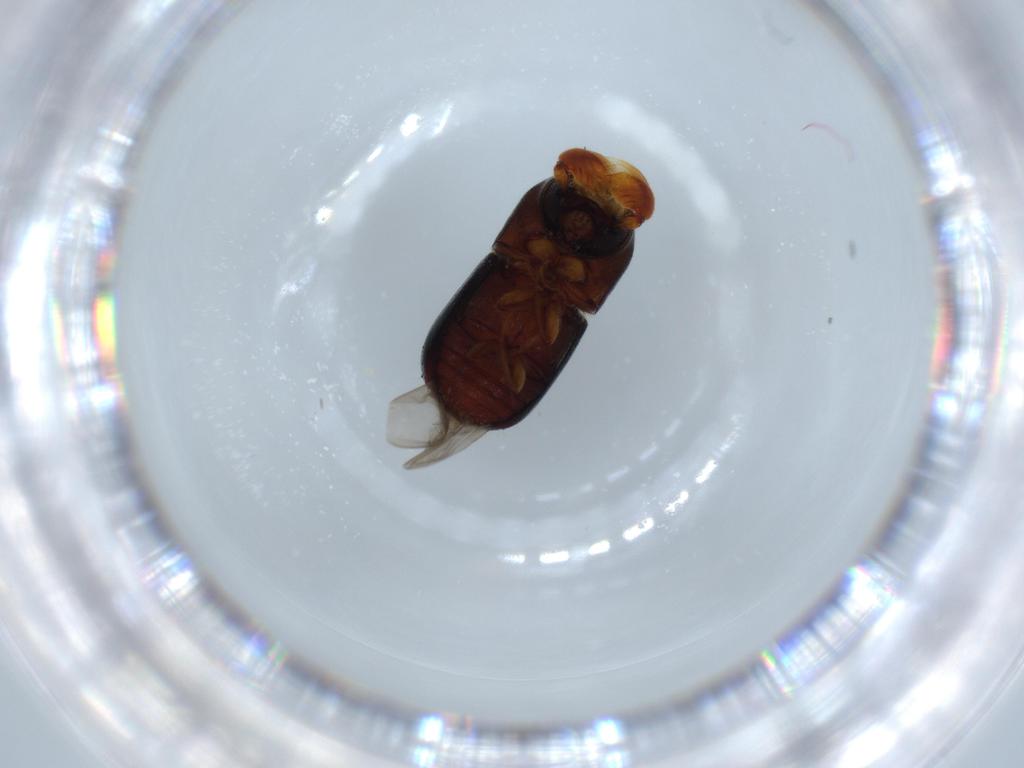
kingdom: Animalia
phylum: Arthropoda
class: Insecta
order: Coleoptera
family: Curculionidae
